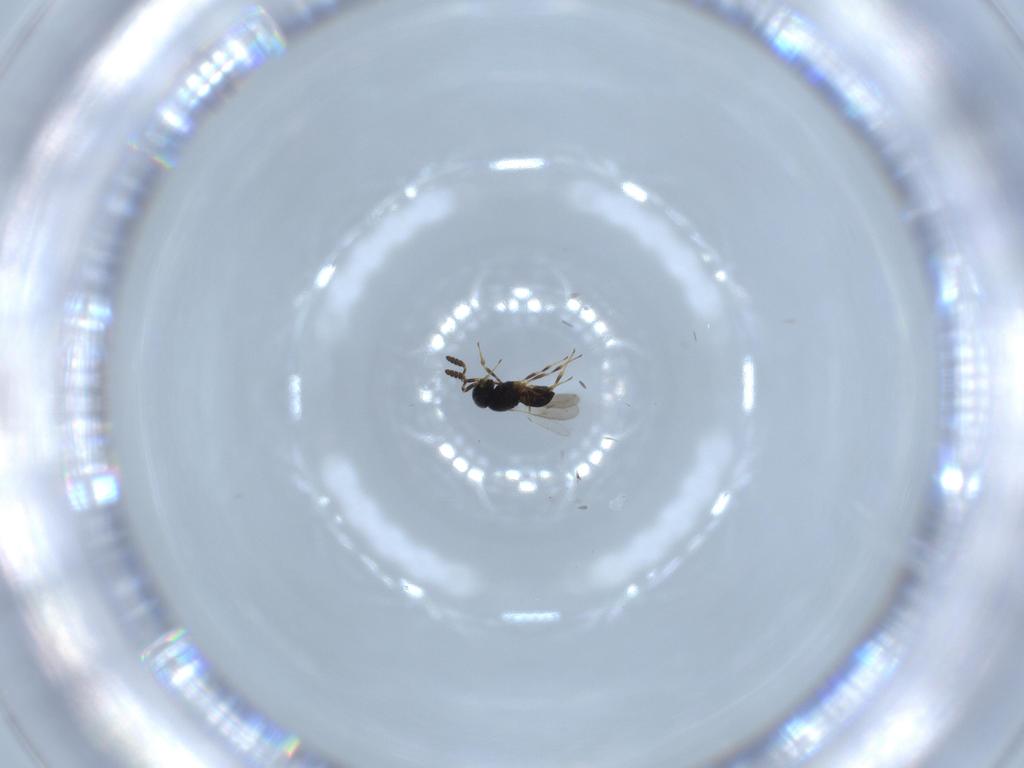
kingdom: Animalia
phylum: Arthropoda
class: Insecta
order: Hymenoptera
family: Scelionidae
